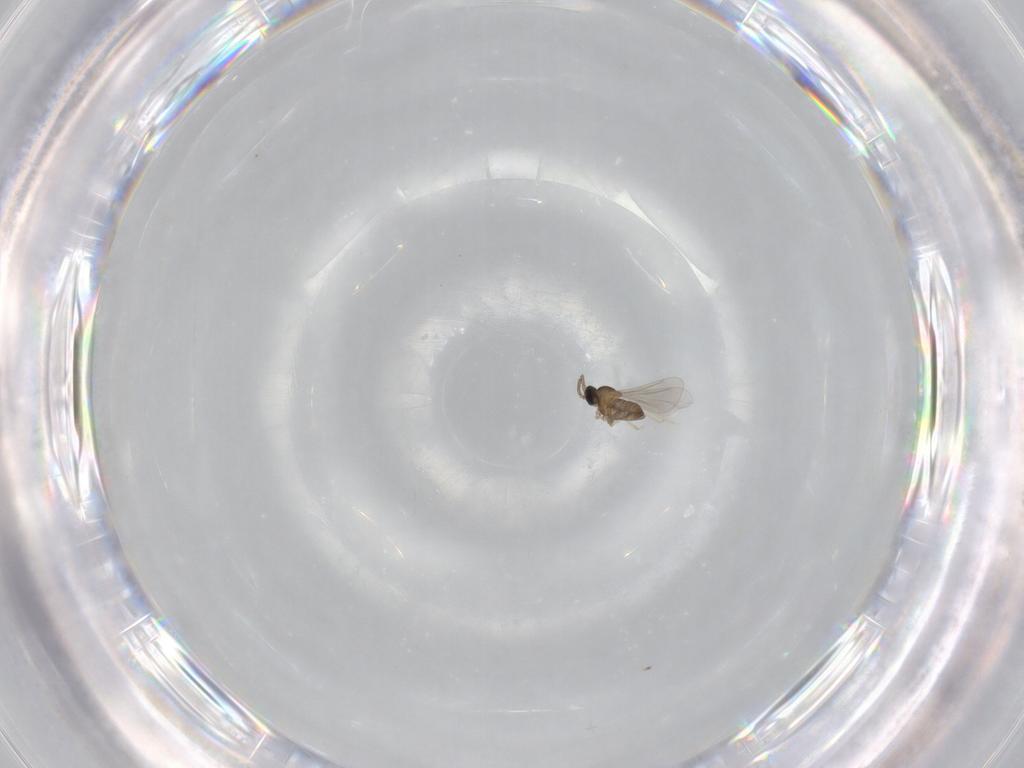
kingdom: Animalia
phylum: Arthropoda
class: Insecta
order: Diptera
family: Cecidomyiidae
